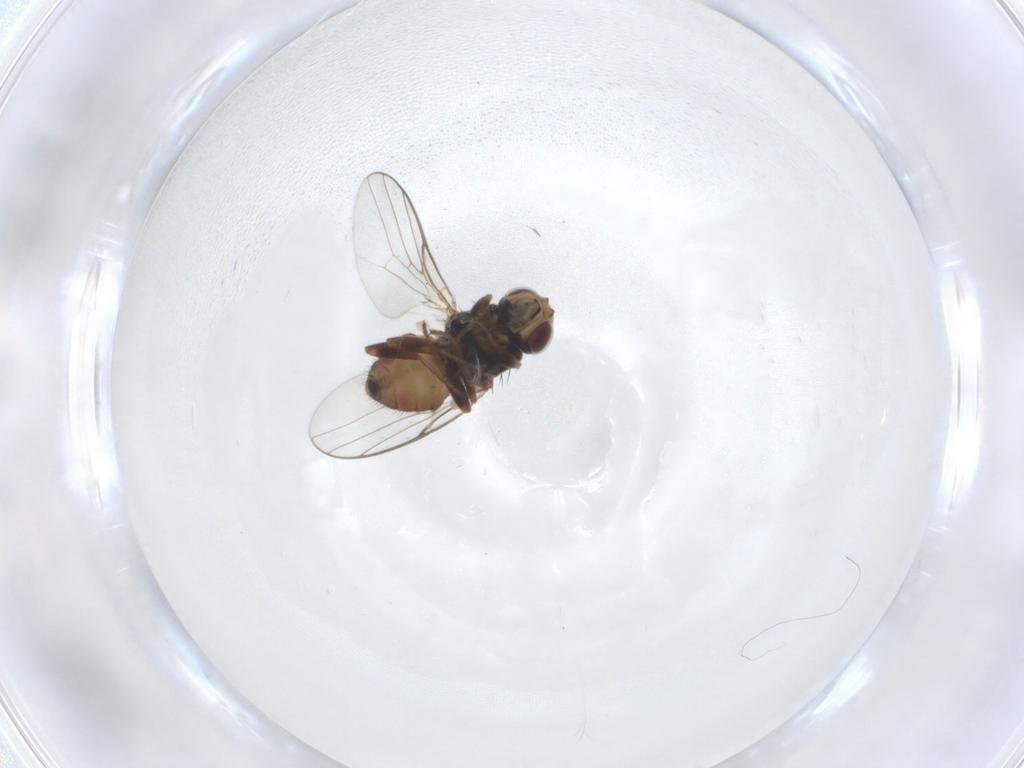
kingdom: Animalia
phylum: Arthropoda
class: Insecta
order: Diptera
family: Chloropidae
